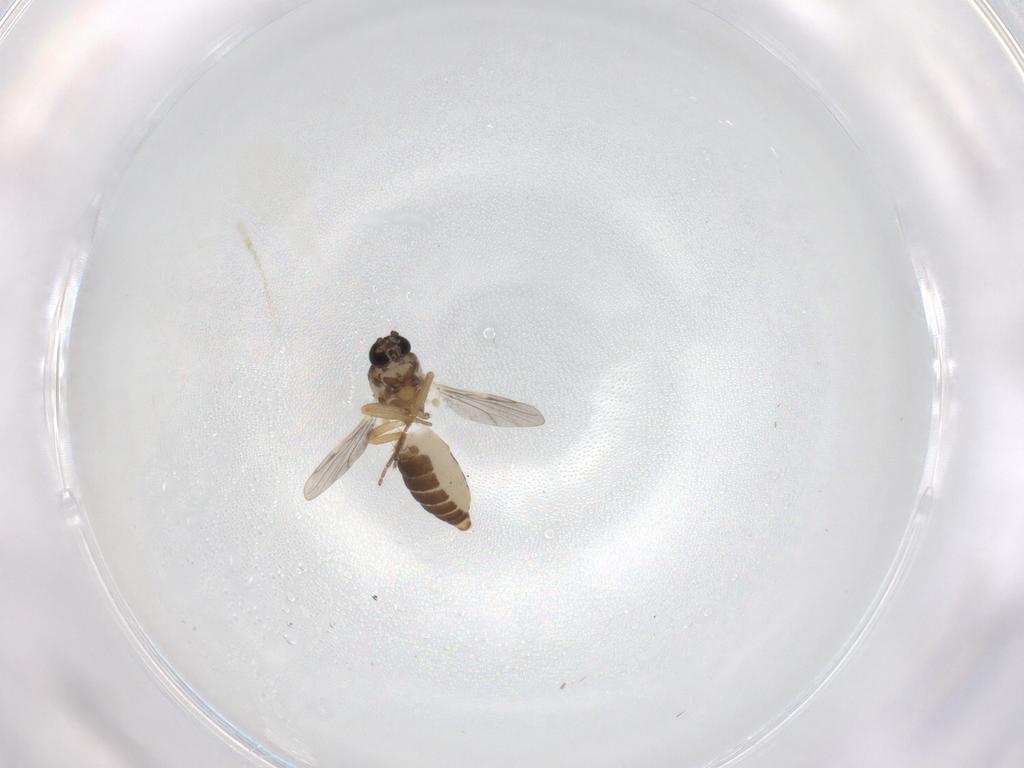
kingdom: Animalia
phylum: Arthropoda
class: Insecta
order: Diptera
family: Ceratopogonidae
